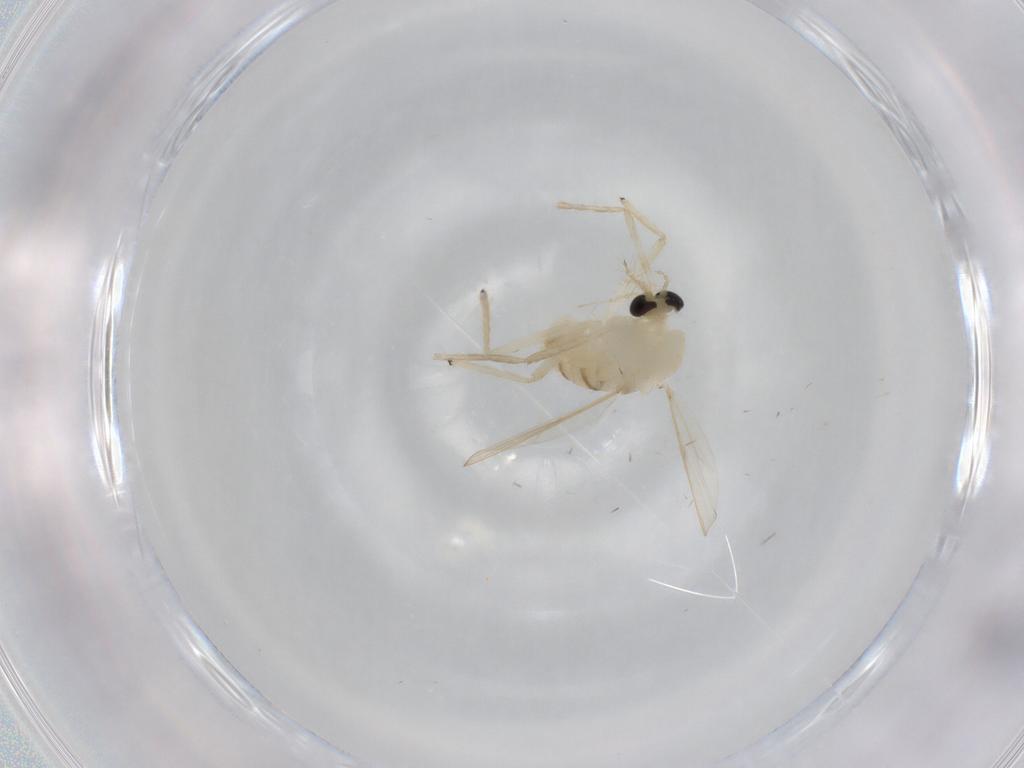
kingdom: Animalia
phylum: Arthropoda
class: Insecta
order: Diptera
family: Chironomidae
